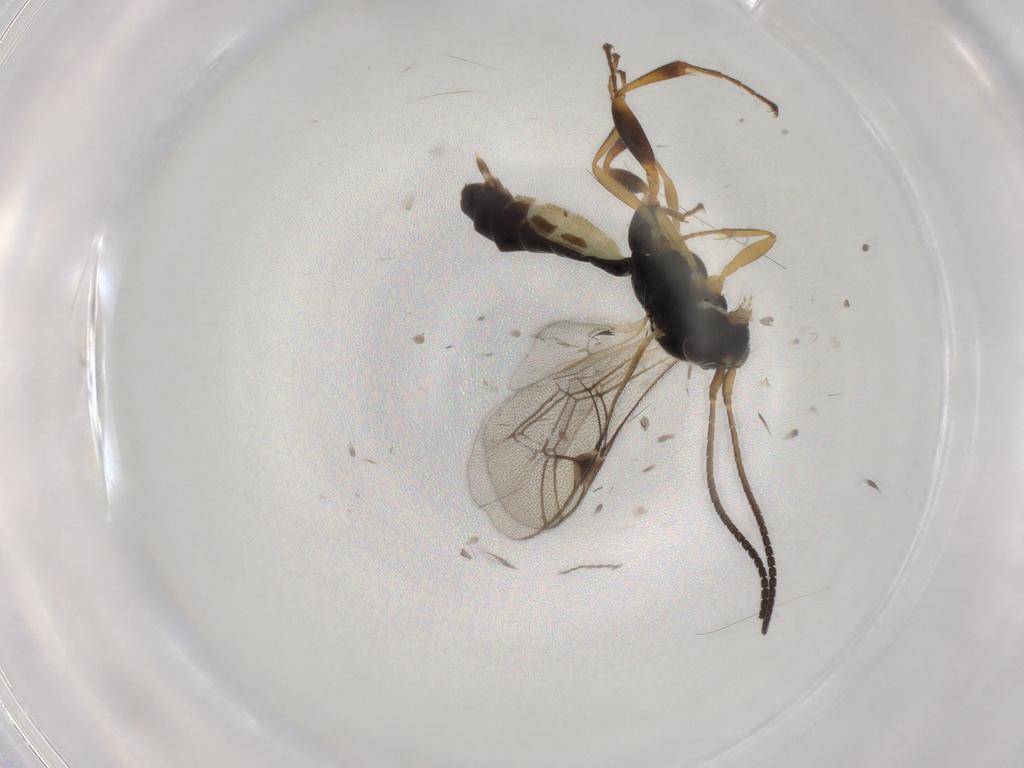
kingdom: Animalia
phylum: Arthropoda
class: Insecta
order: Hymenoptera
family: Ichneumonidae
